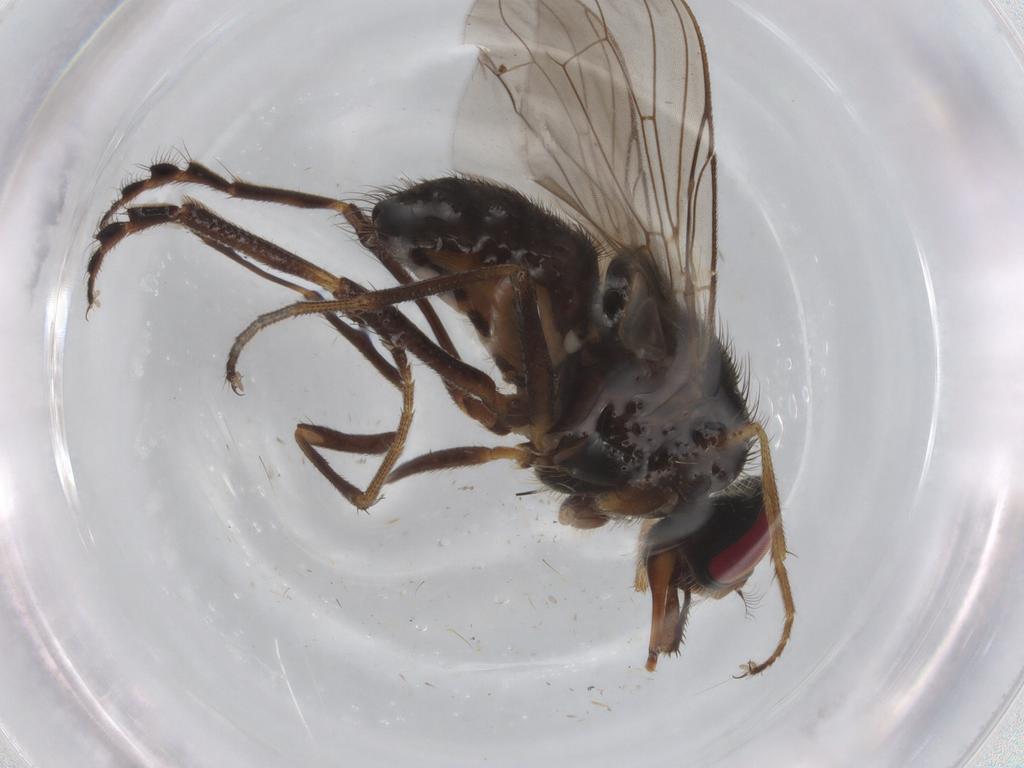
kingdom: Animalia
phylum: Arthropoda
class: Insecta
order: Diptera
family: Cecidomyiidae
